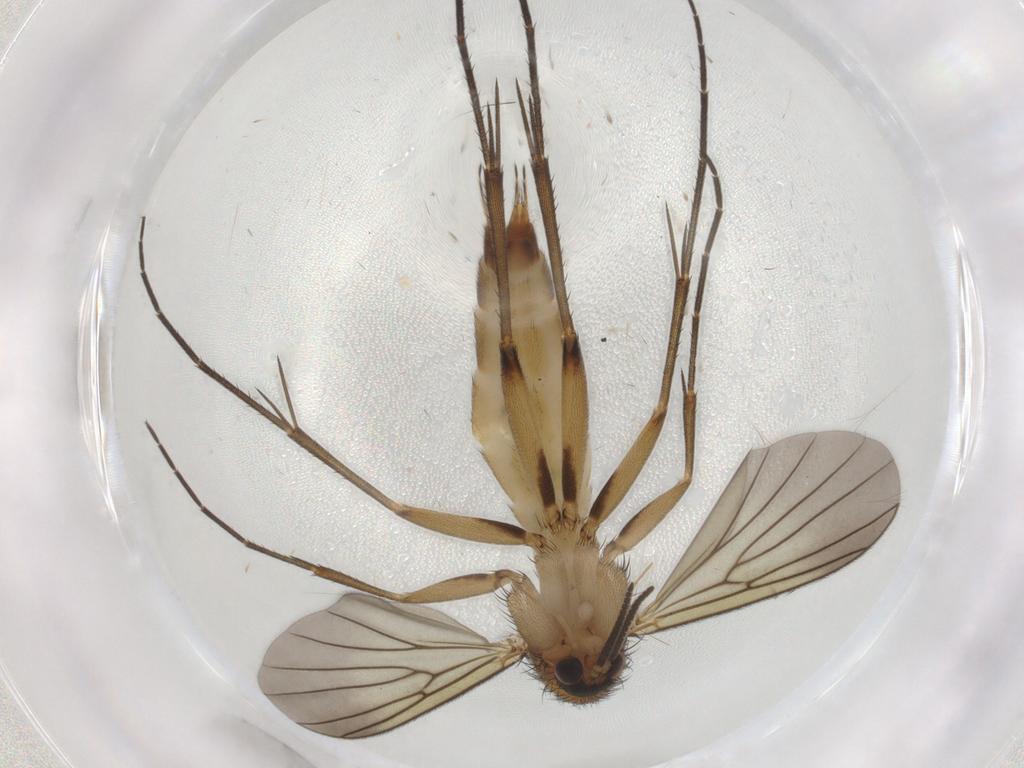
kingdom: Animalia
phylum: Arthropoda
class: Insecta
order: Diptera
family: Mycetophilidae
